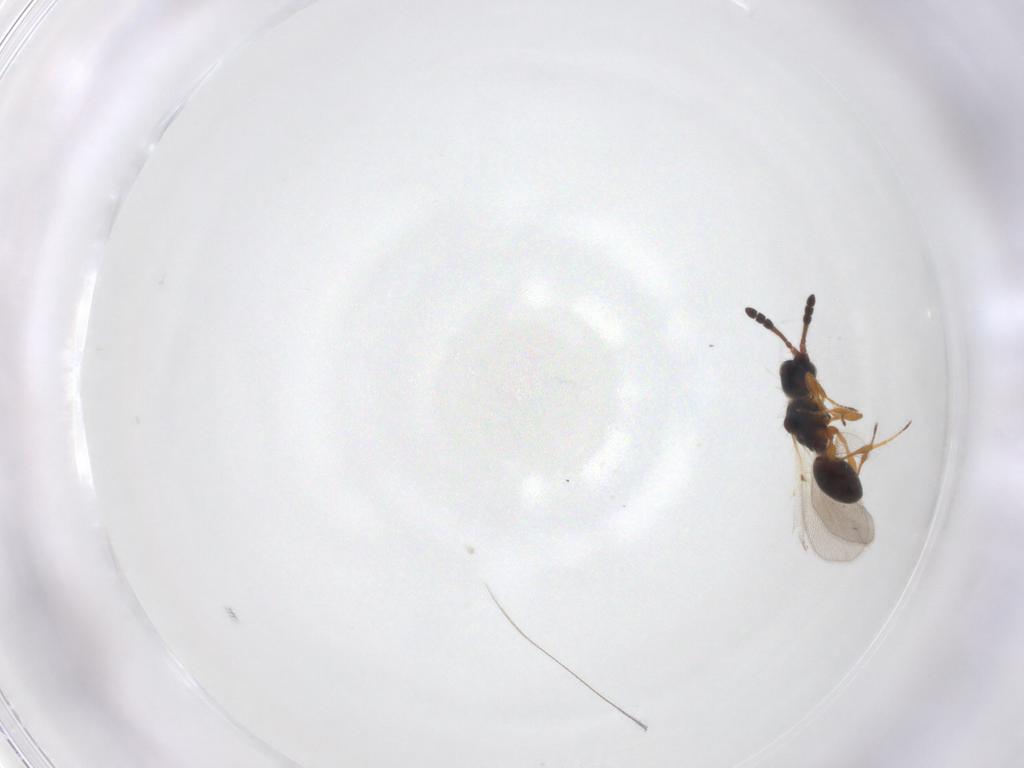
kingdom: Animalia
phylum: Arthropoda
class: Insecta
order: Hymenoptera
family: Diapriidae
